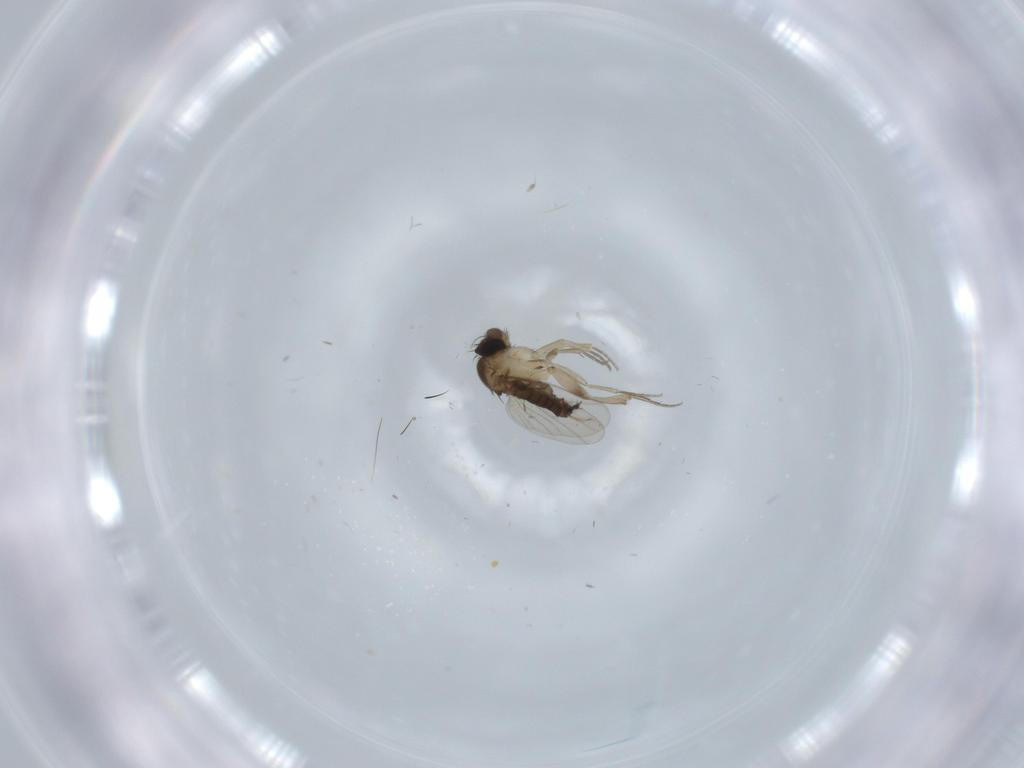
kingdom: Animalia
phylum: Arthropoda
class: Insecta
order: Diptera
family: Phoridae
